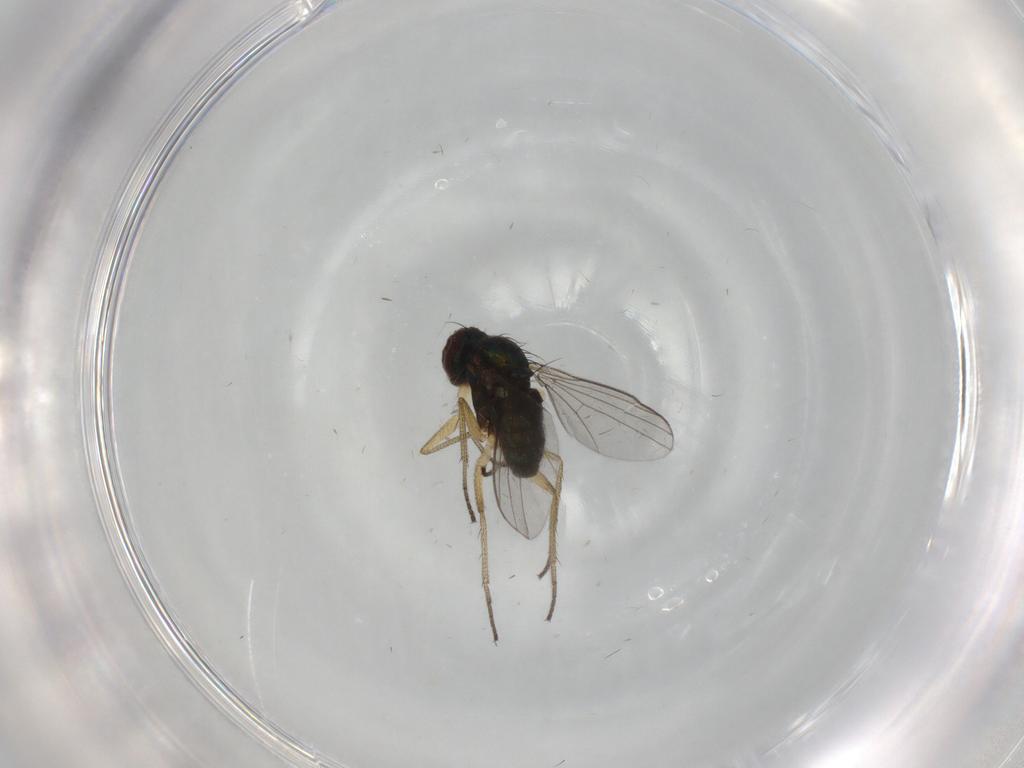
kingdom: Animalia
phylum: Arthropoda
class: Insecta
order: Diptera
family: Dolichopodidae
